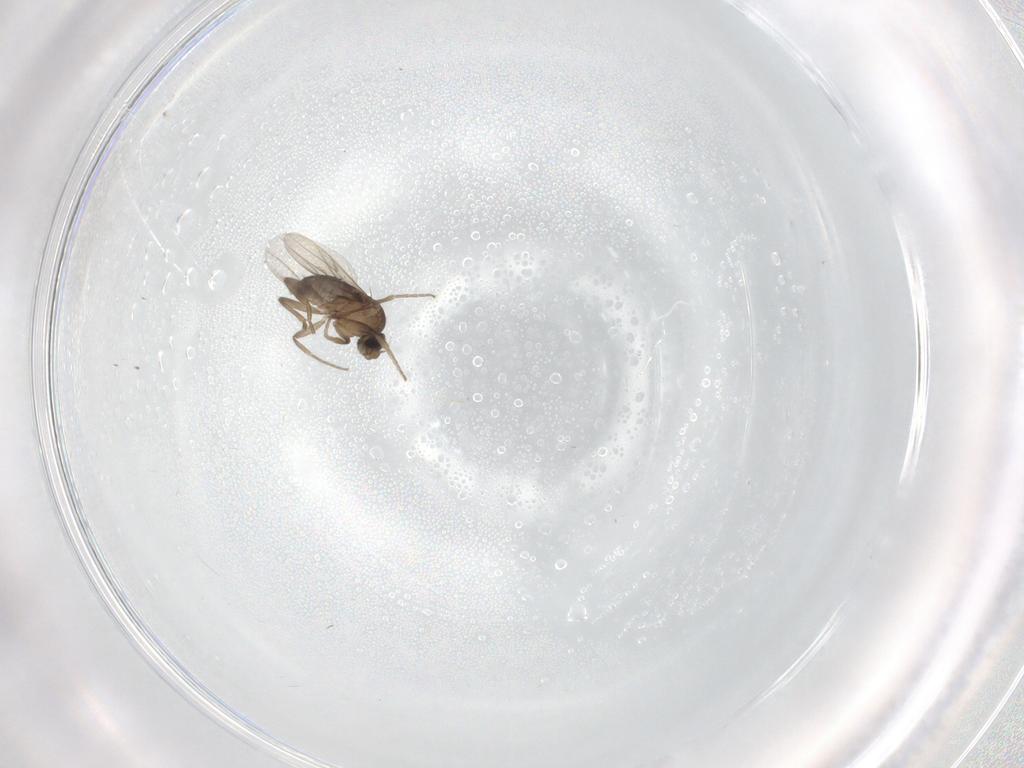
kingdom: Animalia
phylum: Arthropoda
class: Insecta
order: Diptera
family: Phoridae
